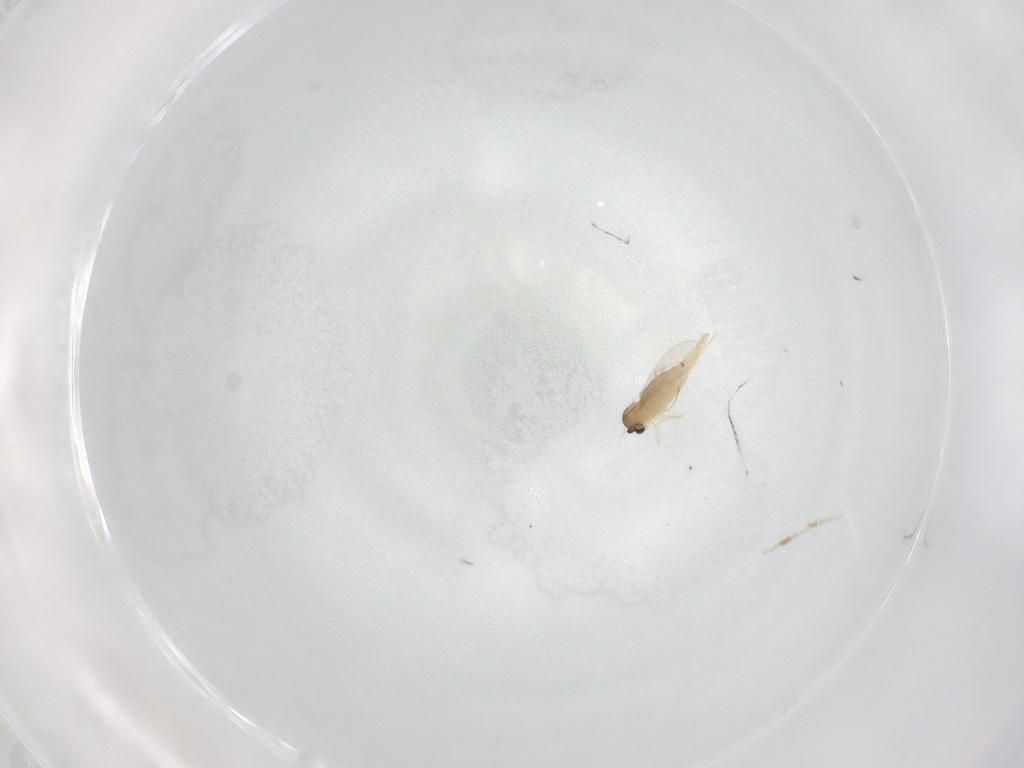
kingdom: Animalia
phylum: Arthropoda
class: Insecta
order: Diptera
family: Cecidomyiidae
